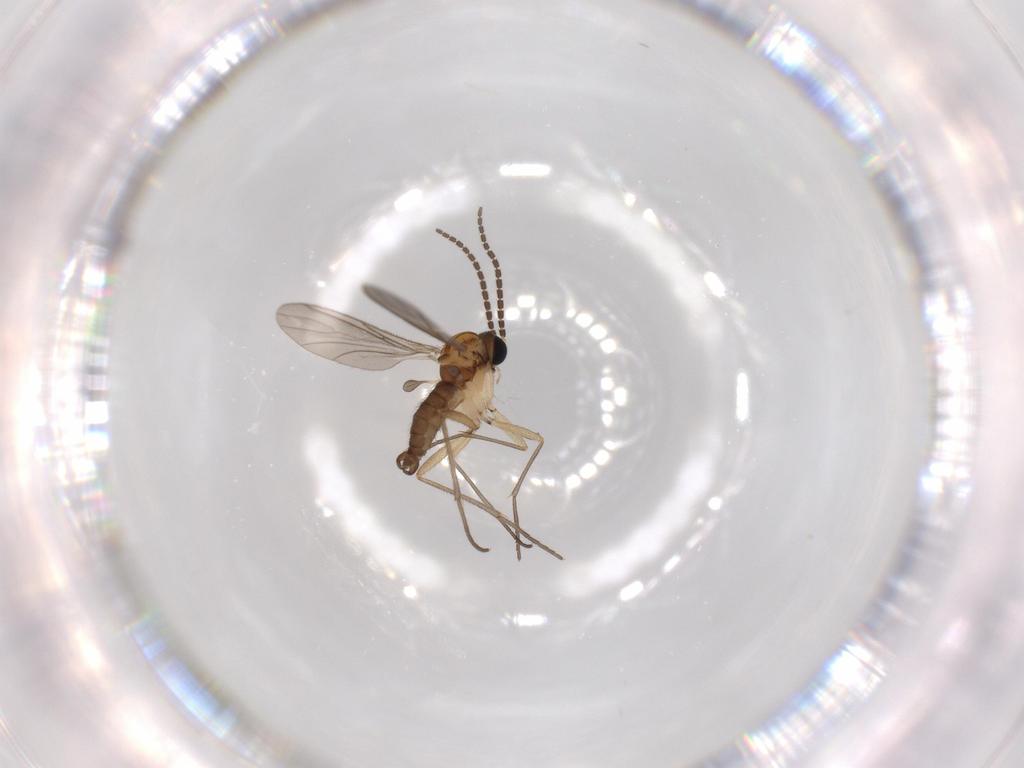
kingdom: Animalia
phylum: Arthropoda
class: Insecta
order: Diptera
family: Sciaridae
